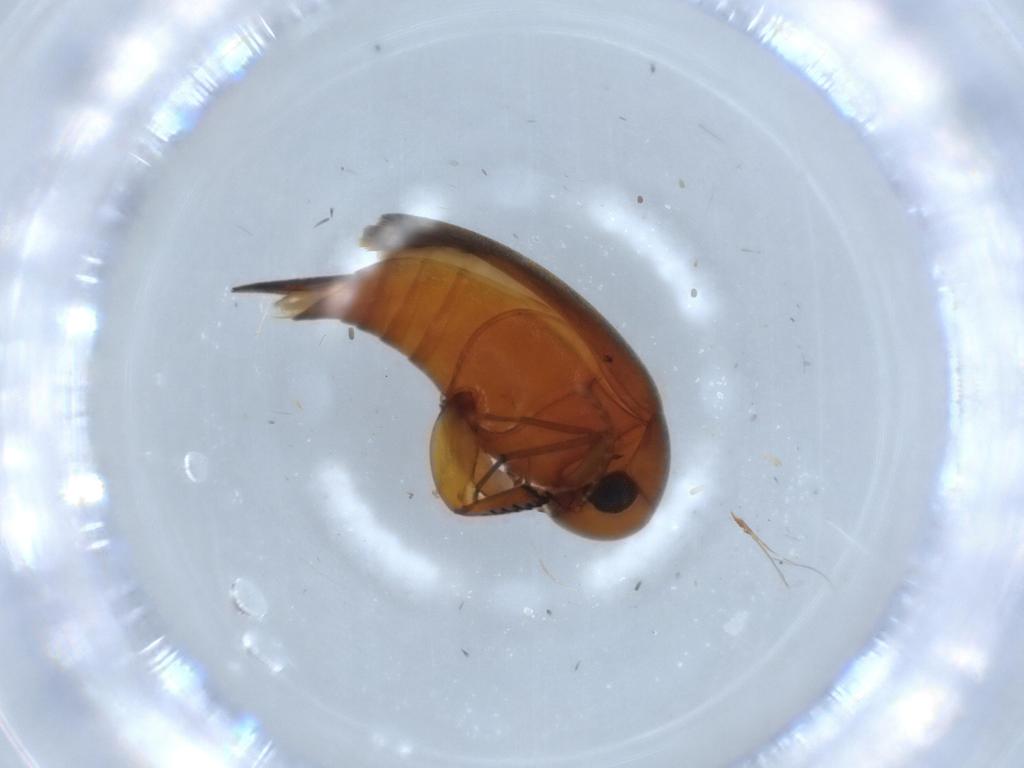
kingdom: Animalia
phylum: Arthropoda
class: Insecta
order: Coleoptera
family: Mordellidae
